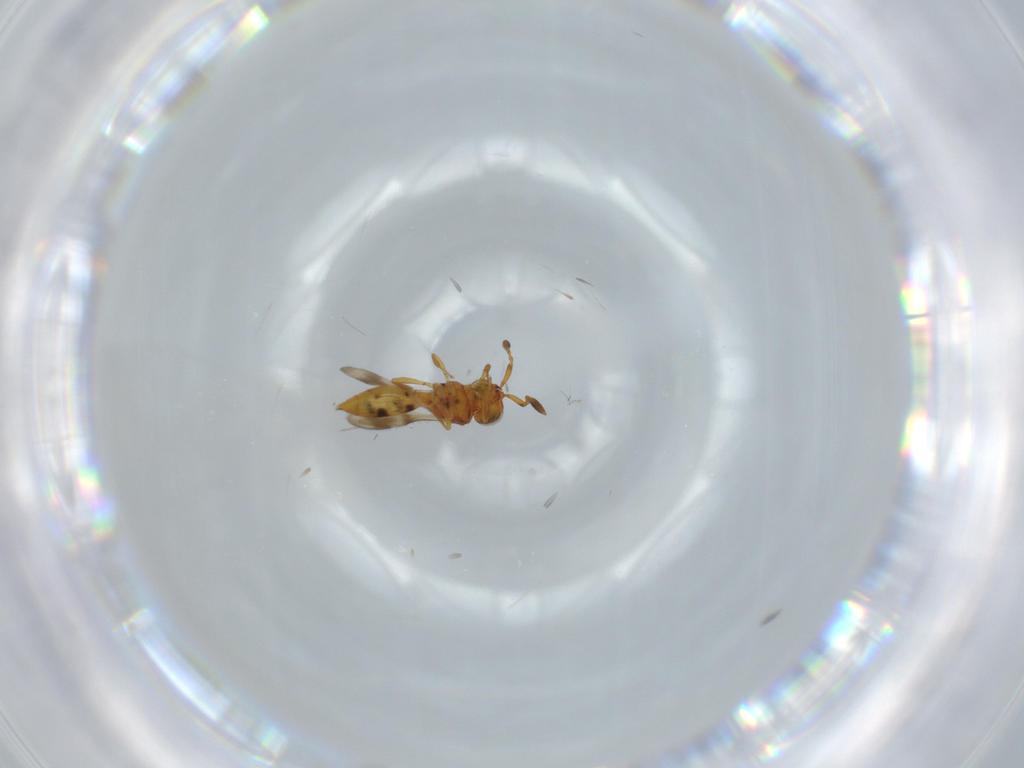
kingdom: Animalia
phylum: Arthropoda
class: Insecta
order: Hymenoptera
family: Scelionidae
